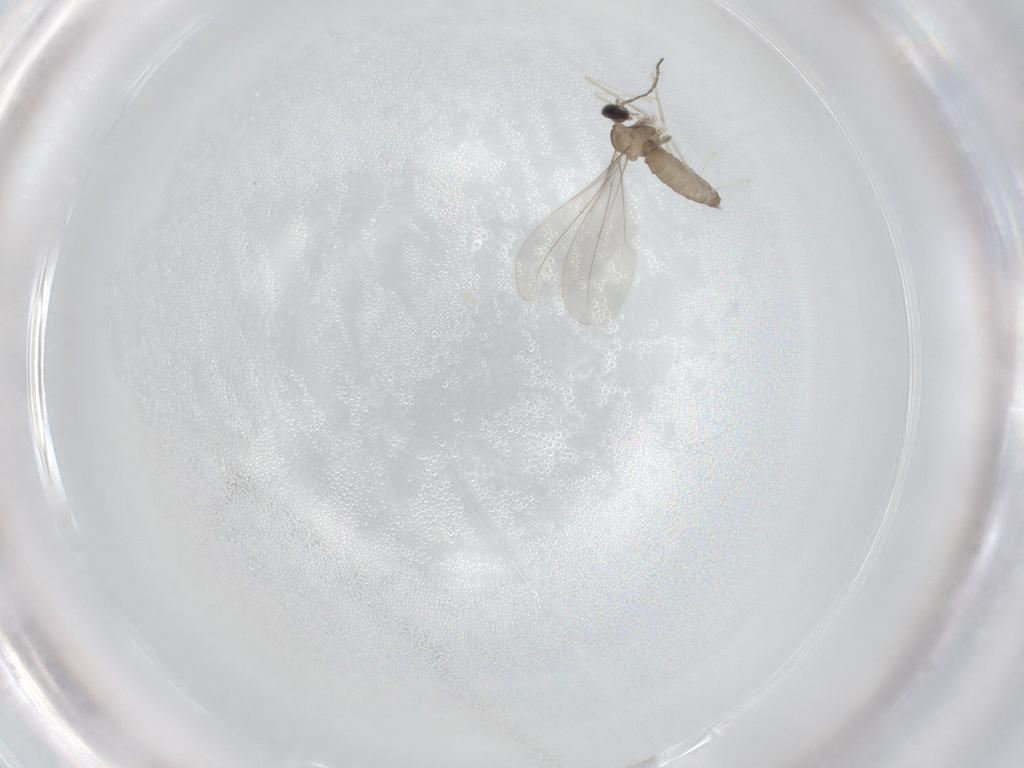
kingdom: Animalia
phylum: Arthropoda
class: Insecta
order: Diptera
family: Cecidomyiidae
